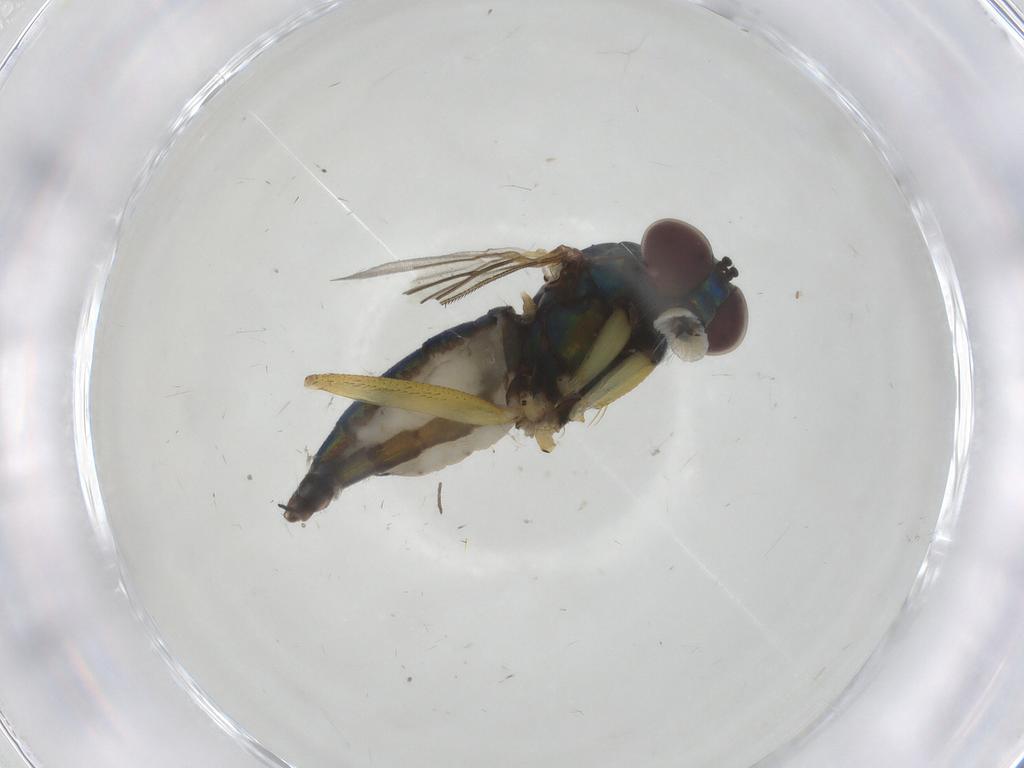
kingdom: Animalia
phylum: Arthropoda
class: Insecta
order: Diptera
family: Dolichopodidae
